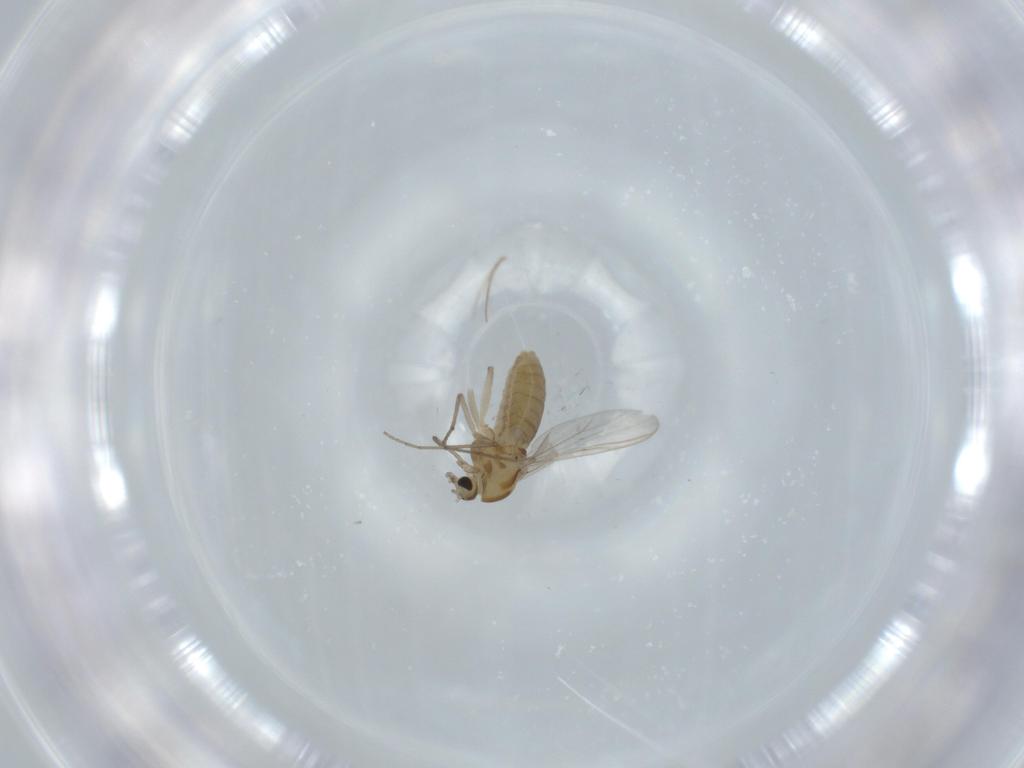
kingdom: Animalia
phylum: Arthropoda
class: Insecta
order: Diptera
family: Chironomidae
